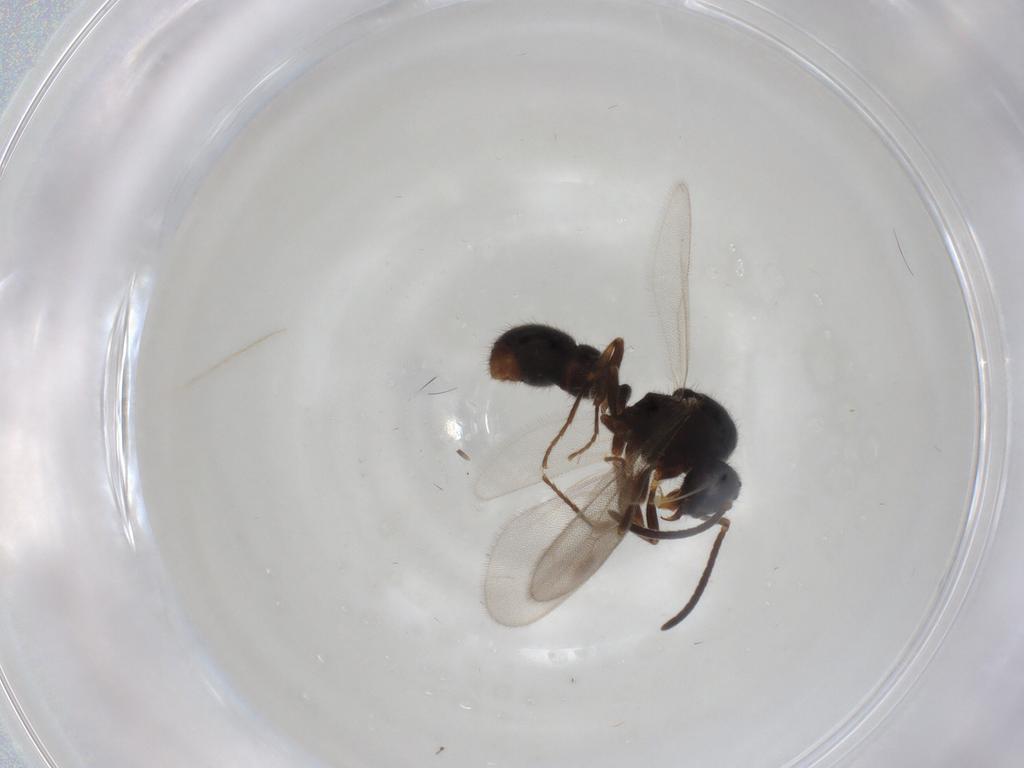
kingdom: Animalia
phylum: Arthropoda
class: Insecta
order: Hymenoptera
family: Formicidae
